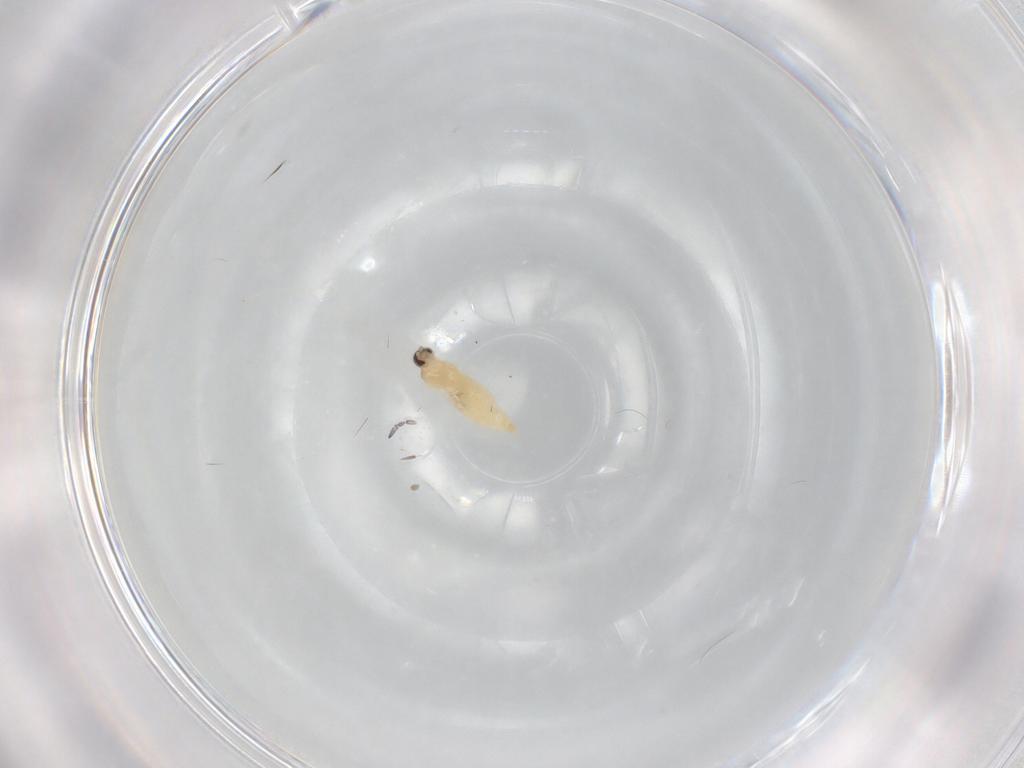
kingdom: Animalia
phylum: Arthropoda
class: Insecta
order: Diptera
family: Cecidomyiidae
